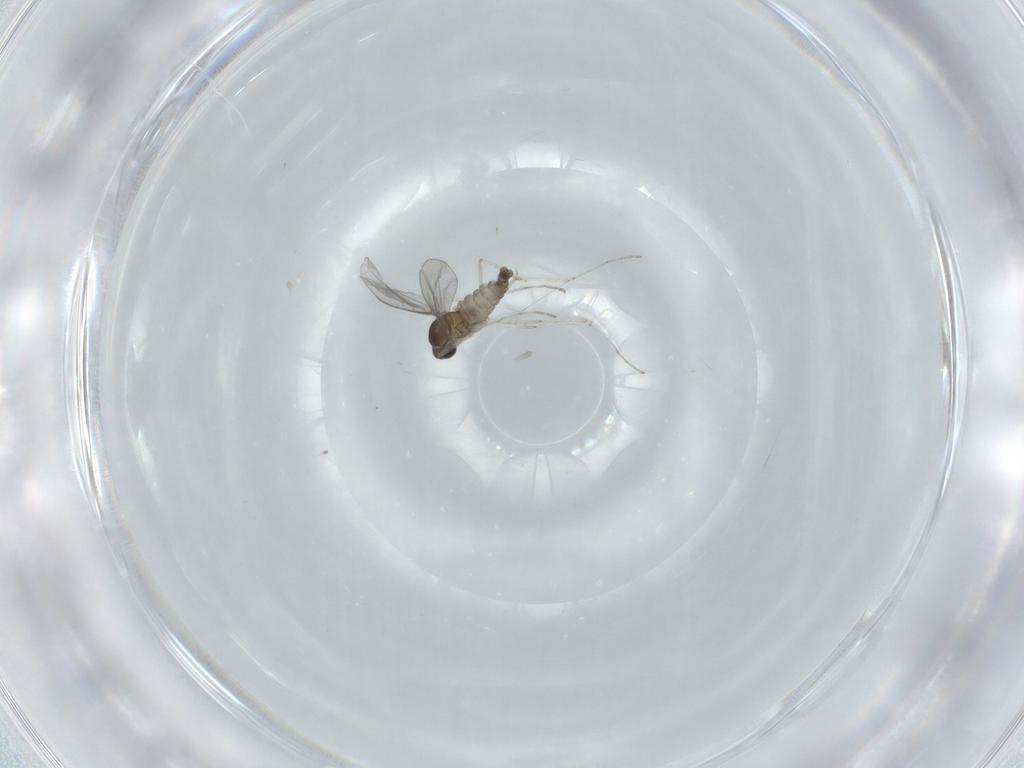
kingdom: Animalia
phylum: Arthropoda
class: Insecta
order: Diptera
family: Cecidomyiidae
